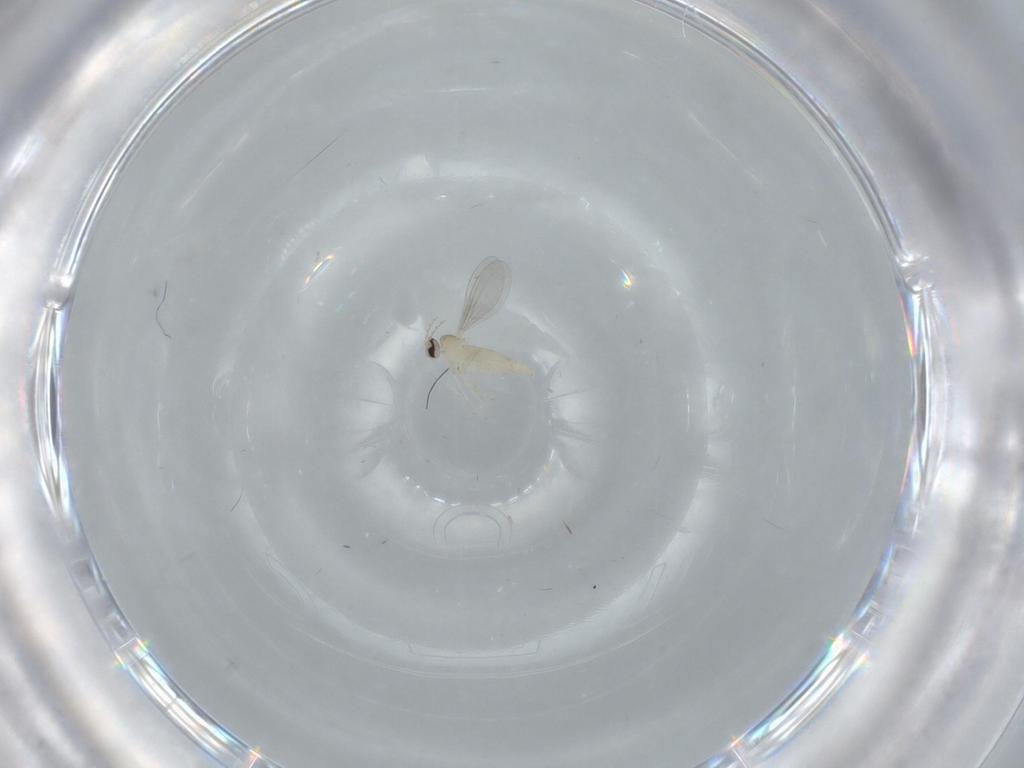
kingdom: Animalia
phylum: Arthropoda
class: Insecta
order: Diptera
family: Cecidomyiidae
